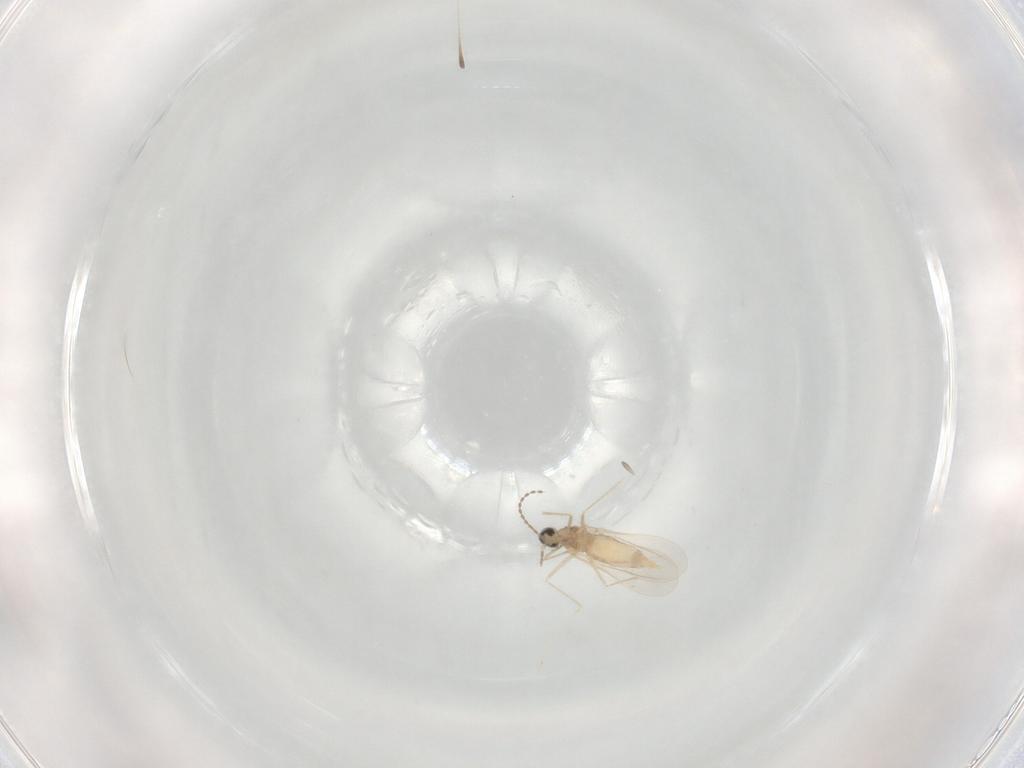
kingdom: Animalia
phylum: Arthropoda
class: Insecta
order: Diptera
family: Cecidomyiidae
